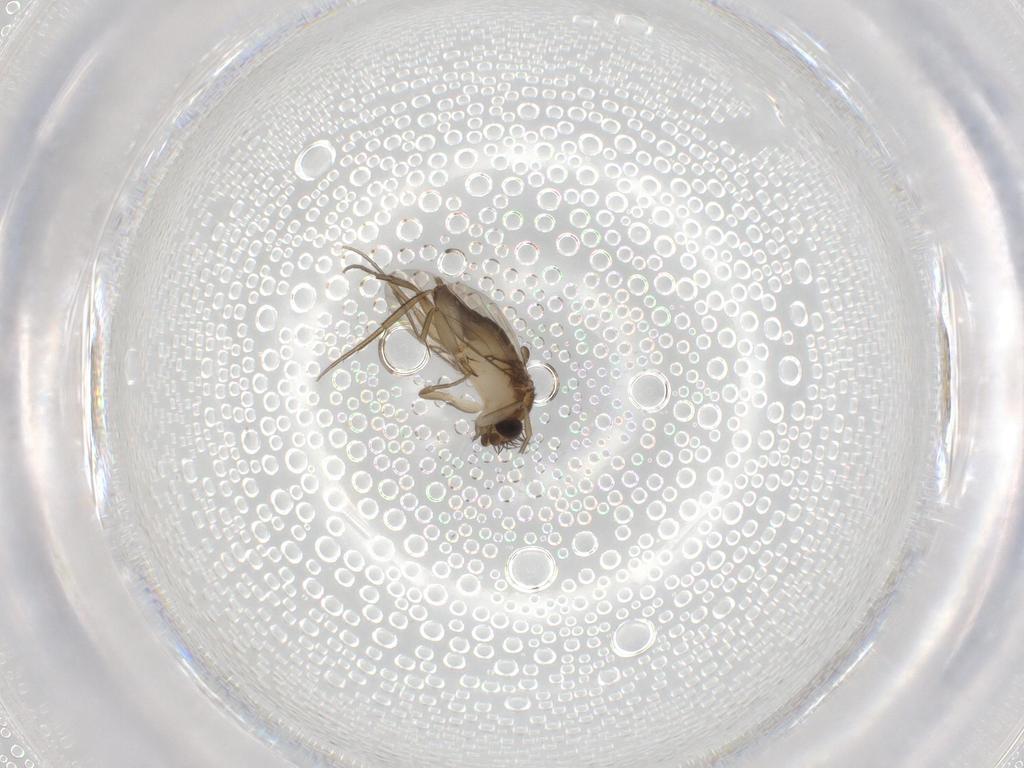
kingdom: Animalia
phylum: Arthropoda
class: Insecta
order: Diptera
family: Phoridae
